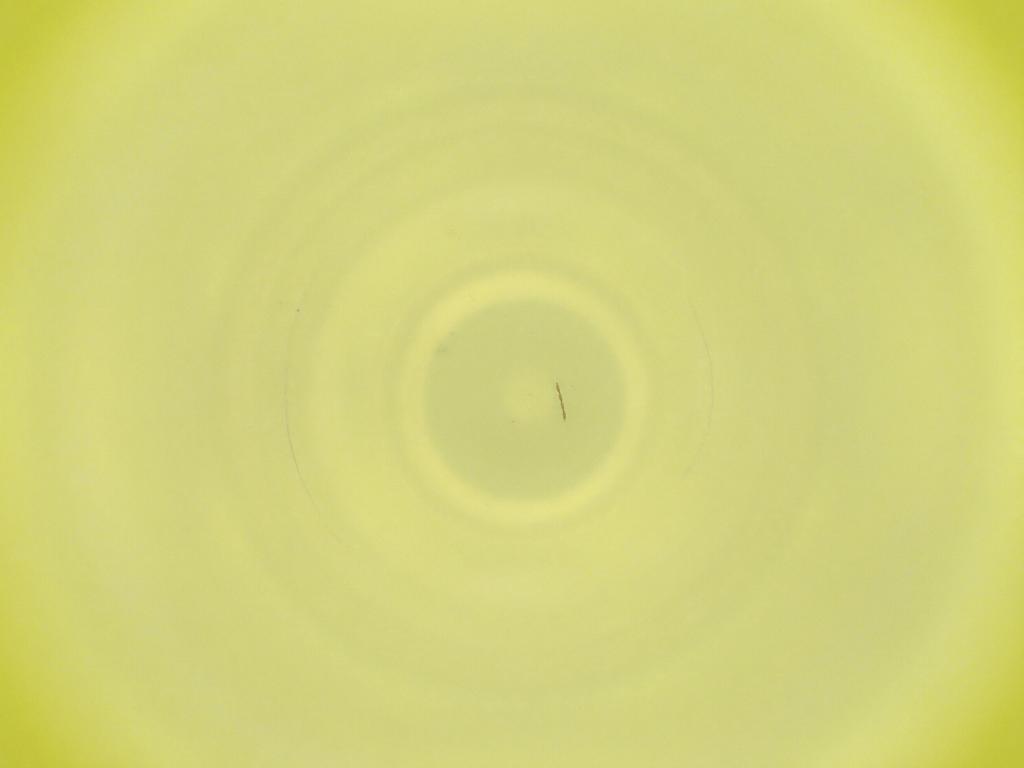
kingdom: Animalia
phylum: Arthropoda
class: Insecta
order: Diptera
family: Cecidomyiidae
